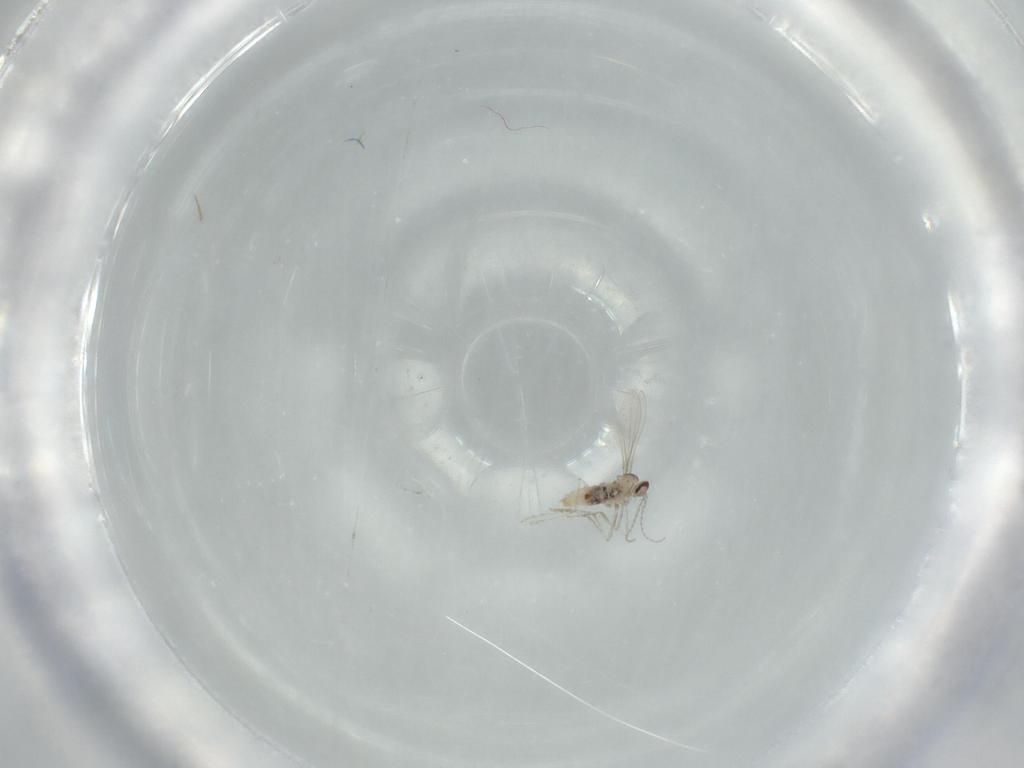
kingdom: Animalia
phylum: Arthropoda
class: Insecta
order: Diptera
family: Cecidomyiidae
